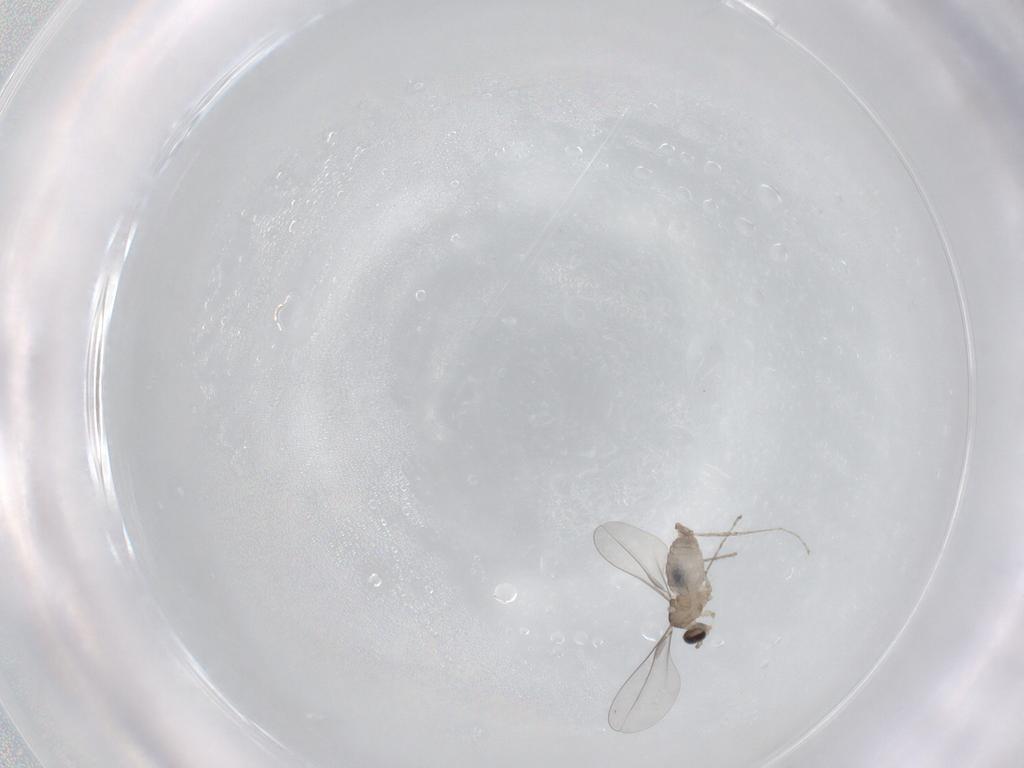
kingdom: Animalia
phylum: Arthropoda
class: Insecta
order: Diptera
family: Cecidomyiidae
